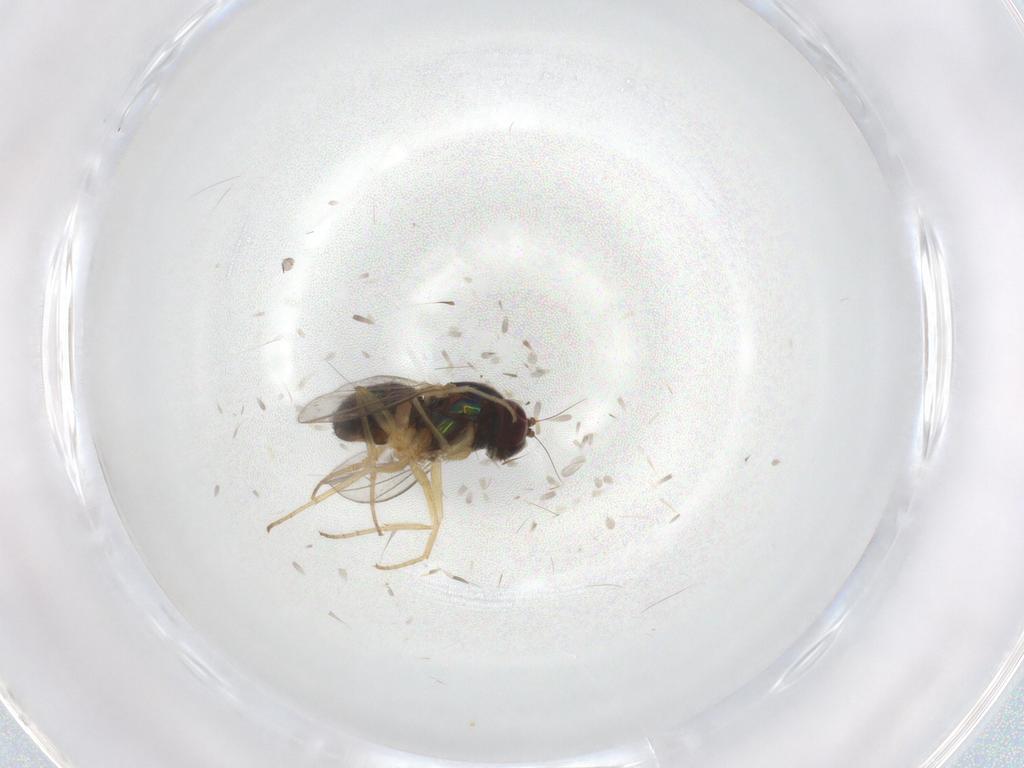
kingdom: Animalia
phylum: Arthropoda
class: Insecta
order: Diptera
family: Dolichopodidae
